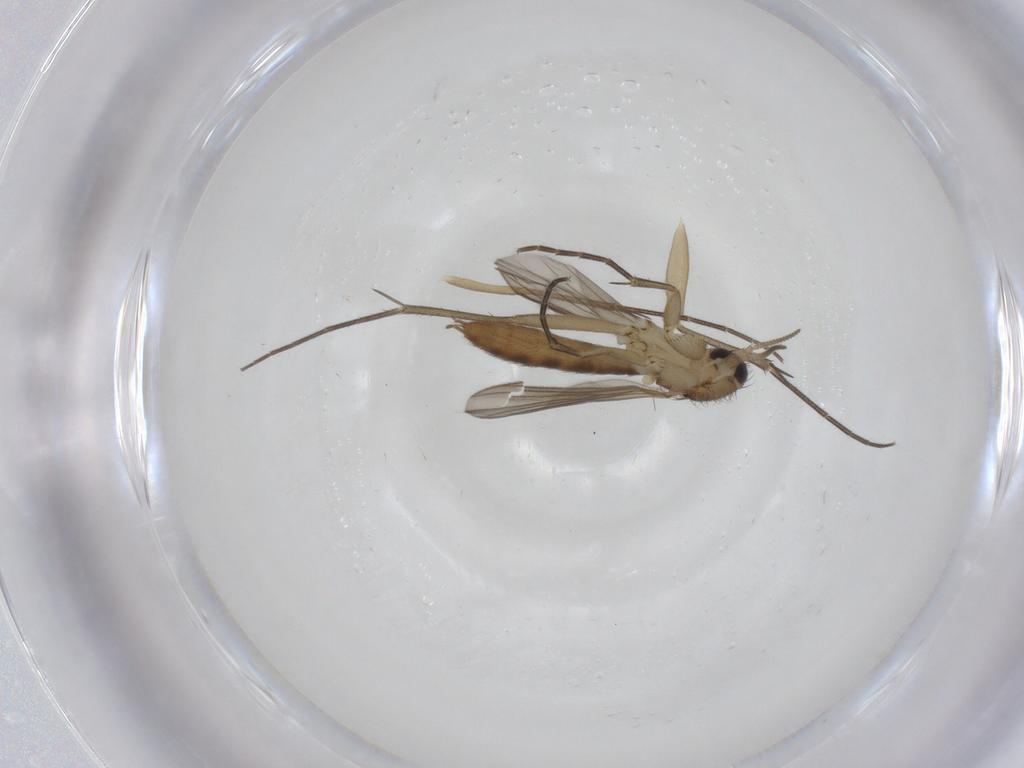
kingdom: Animalia
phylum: Arthropoda
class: Insecta
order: Diptera
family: Mycetophilidae
